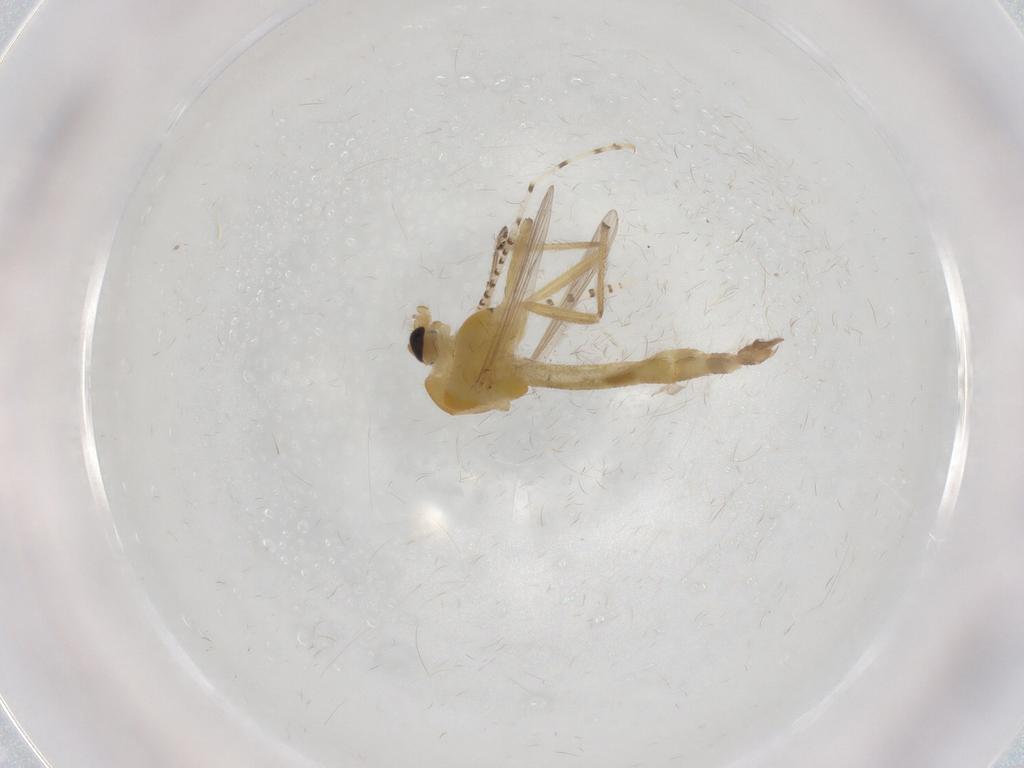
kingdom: Animalia
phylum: Arthropoda
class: Insecta
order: Diptera
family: Chironomidae
